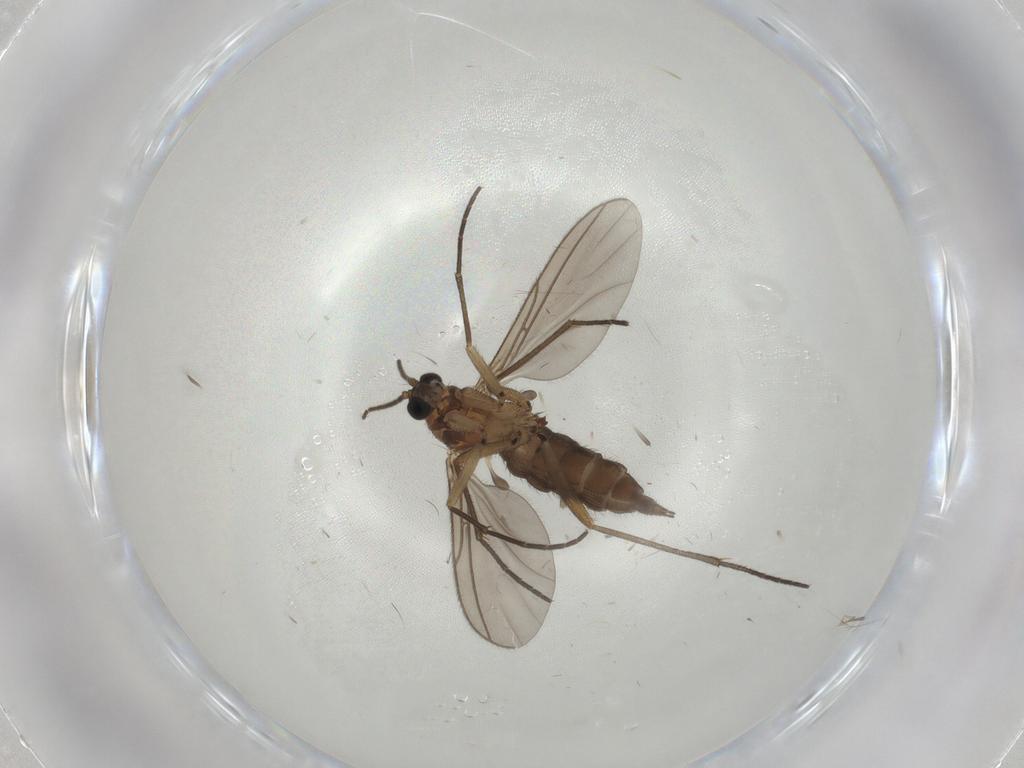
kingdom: Animalia
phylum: Arthropoda
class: Insecta
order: Diptera
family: Sciaridae
